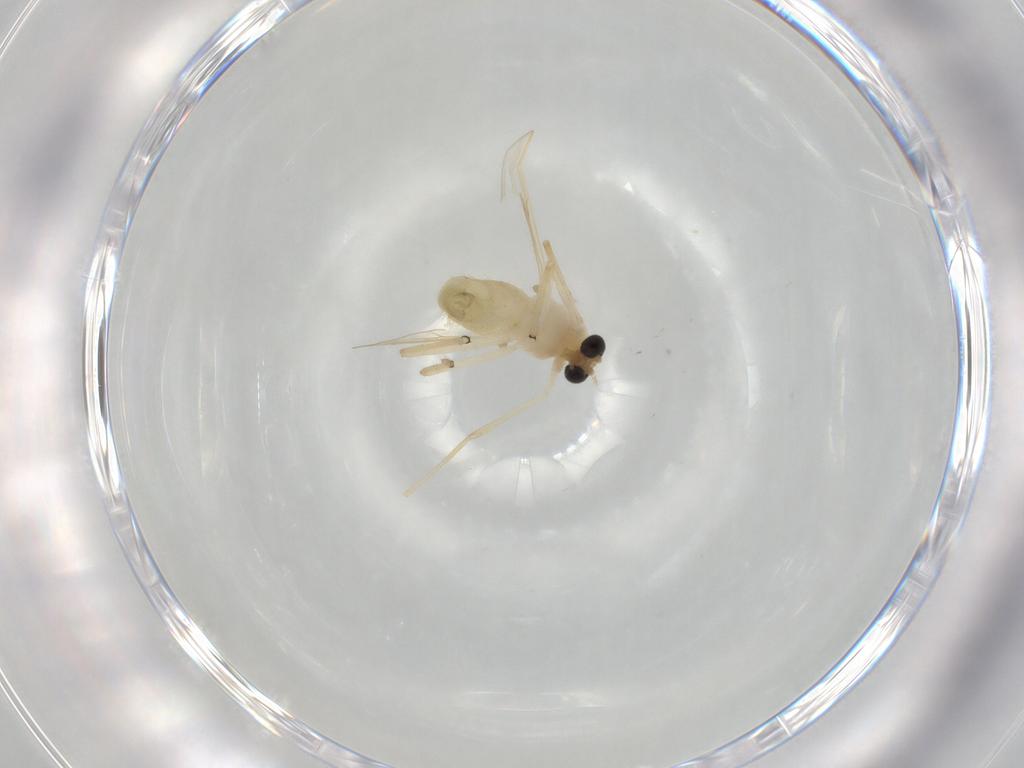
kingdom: Animalia
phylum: Arthropoda
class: Insecta
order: Diptera
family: Chironomidae
